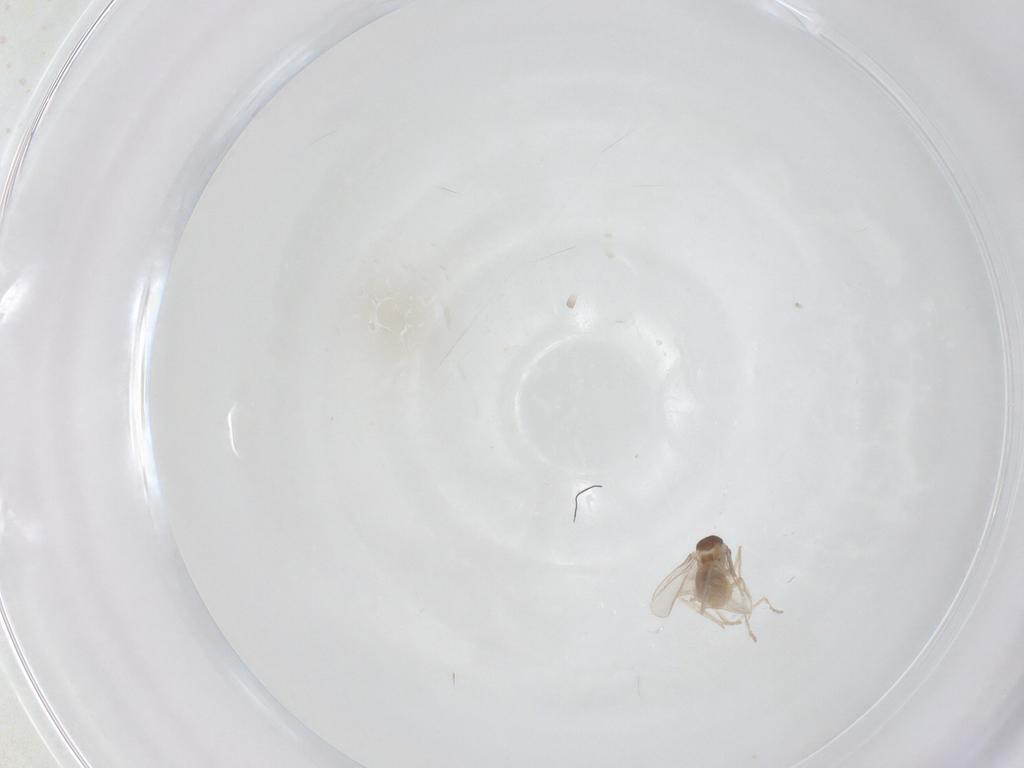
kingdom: Animalia
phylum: Arthropoda
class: Insecta
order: Diptera
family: Cecidomyiidae
